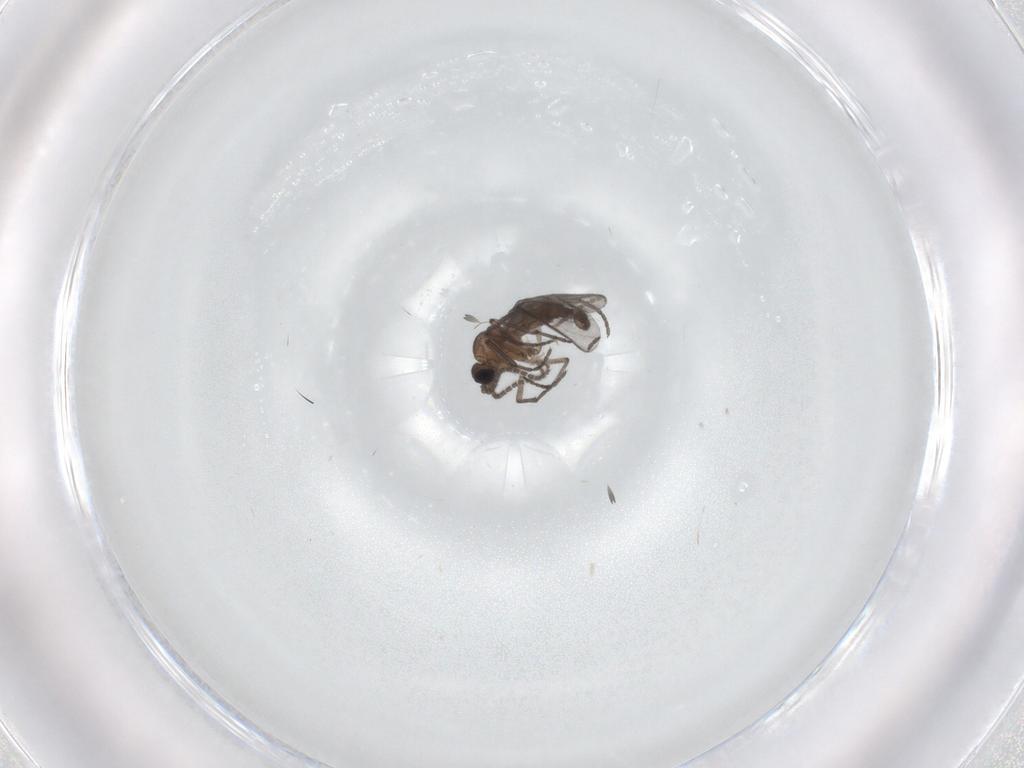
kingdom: Animalia
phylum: Arthropoda
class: Insecta
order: Diptera
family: Sciaridae
